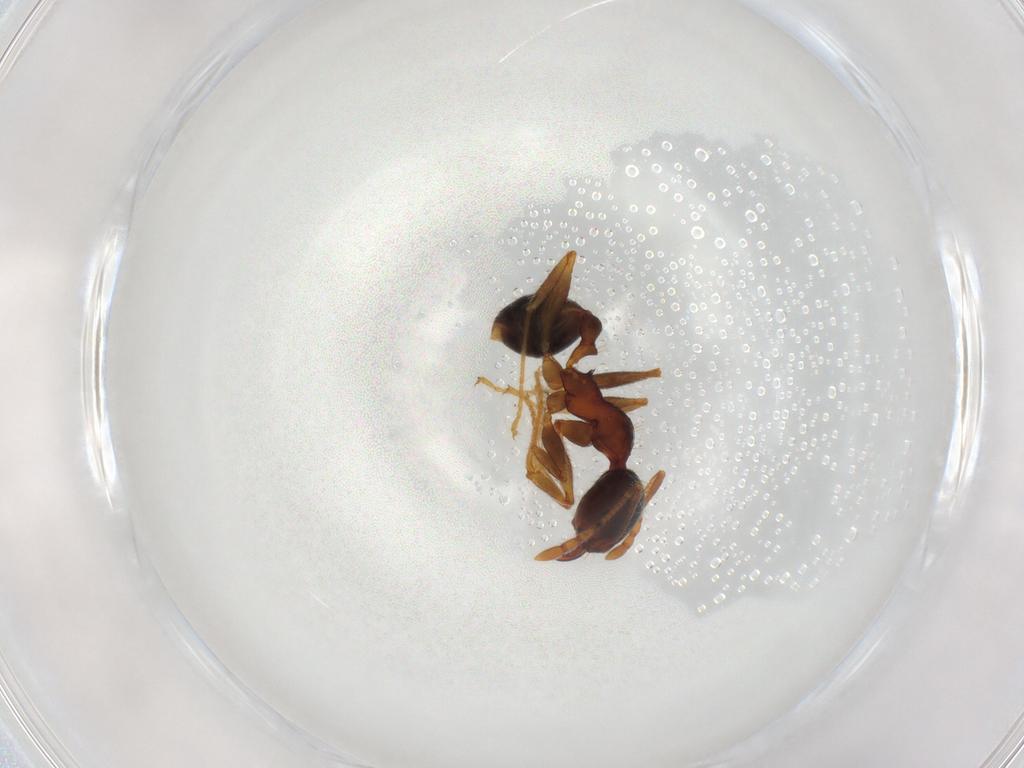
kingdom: Animalia
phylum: Arthropoda
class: Insecta
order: Hymenoptera
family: Formicidae
